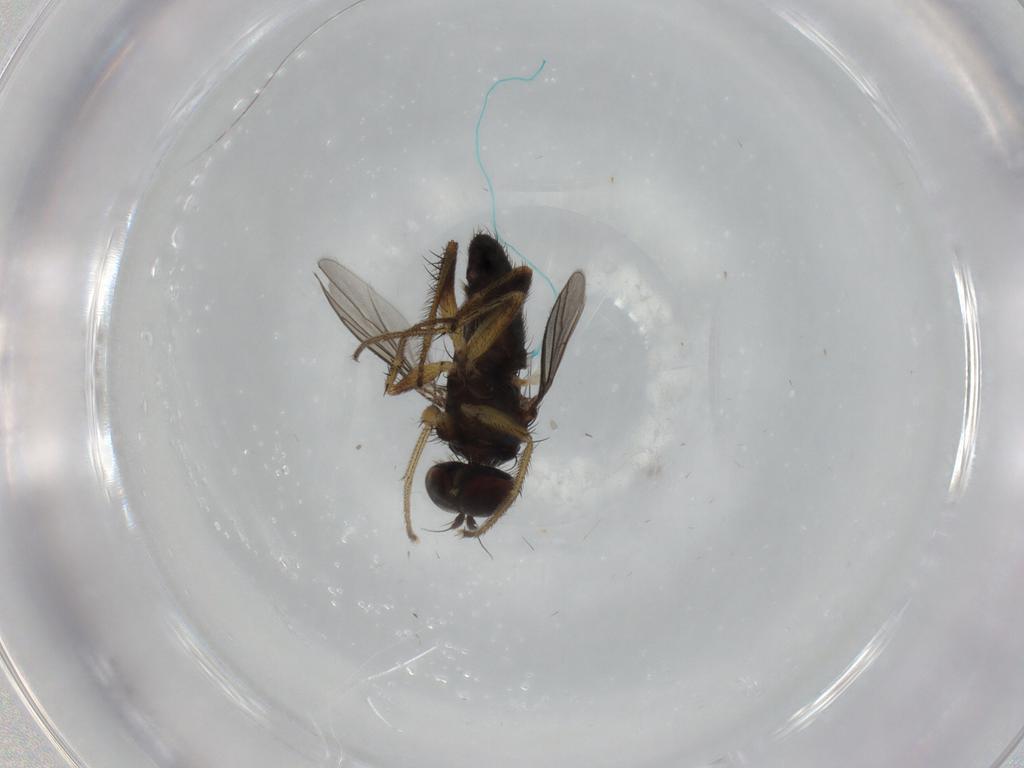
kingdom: Animalia
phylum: Arthropoda
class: Insecta
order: Diptera
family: Dolichopodidae
